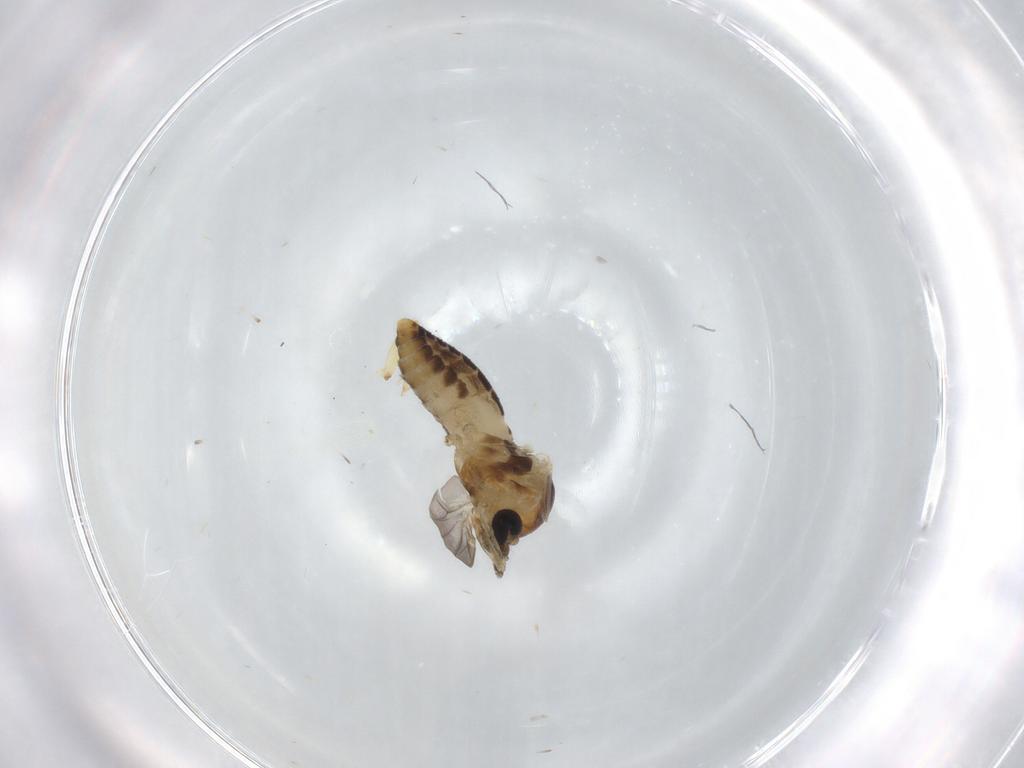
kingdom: Animalia
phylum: Arthropoda
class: Insecta
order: Diptera
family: Ceratopogonidae
